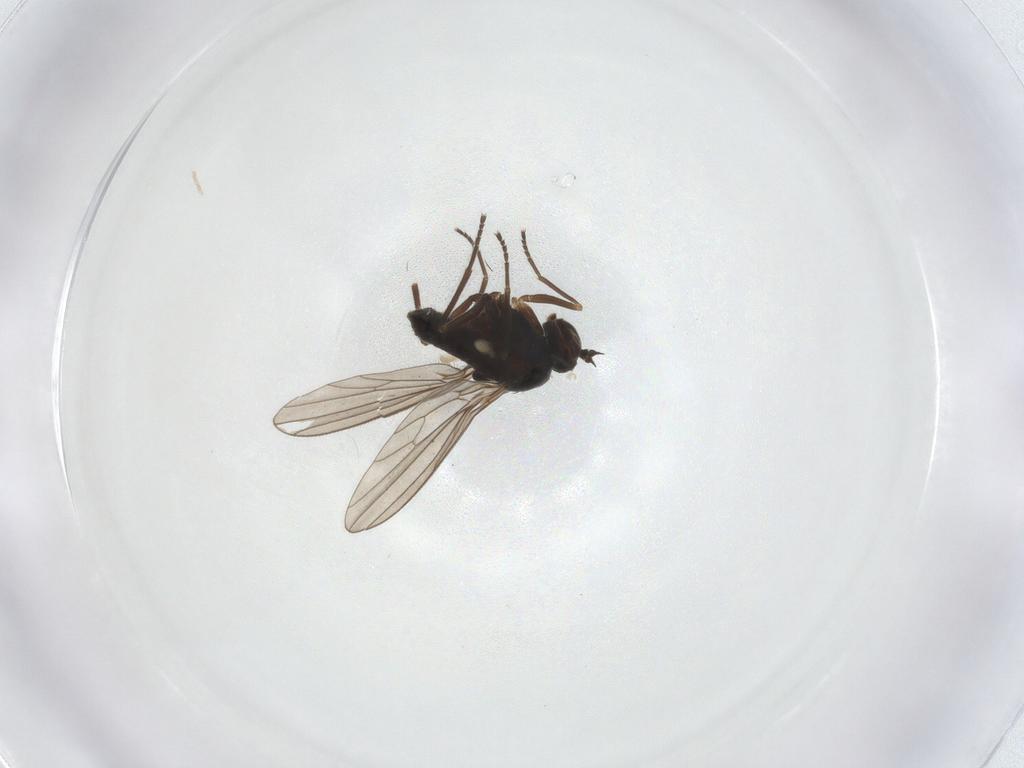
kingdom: Animalia
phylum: Arthropoda
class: Insecta
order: Diptera
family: Dolichopodidae
